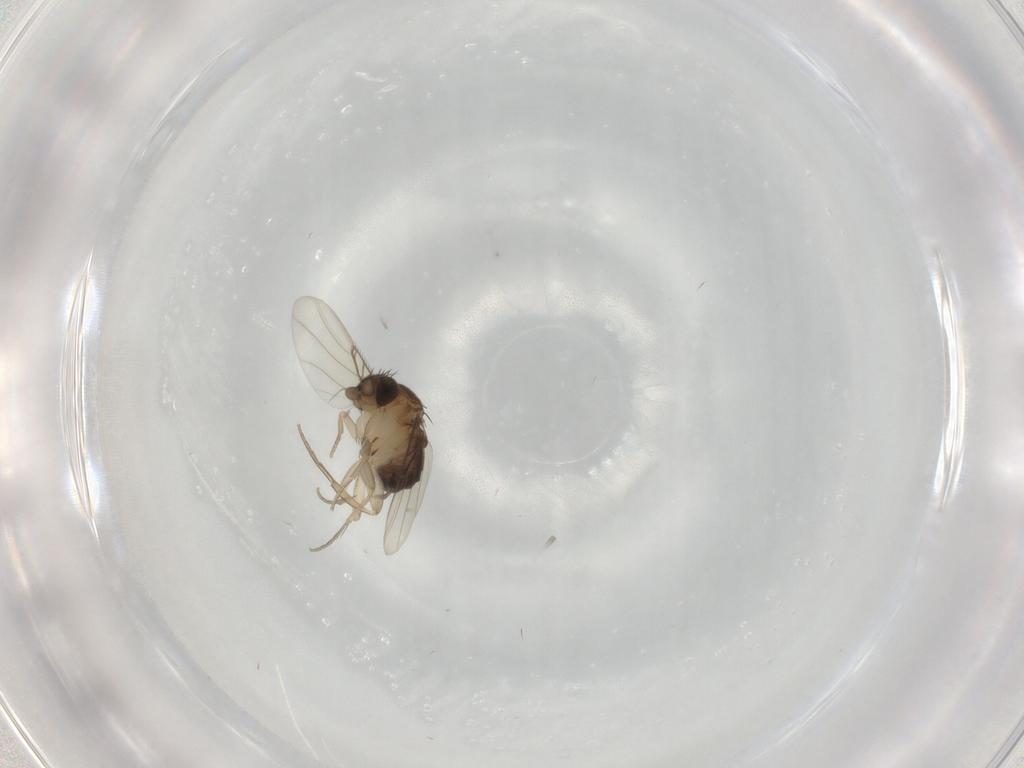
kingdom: Animalia
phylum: Arthropoda
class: Insecta
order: Diptera
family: Phoridae
